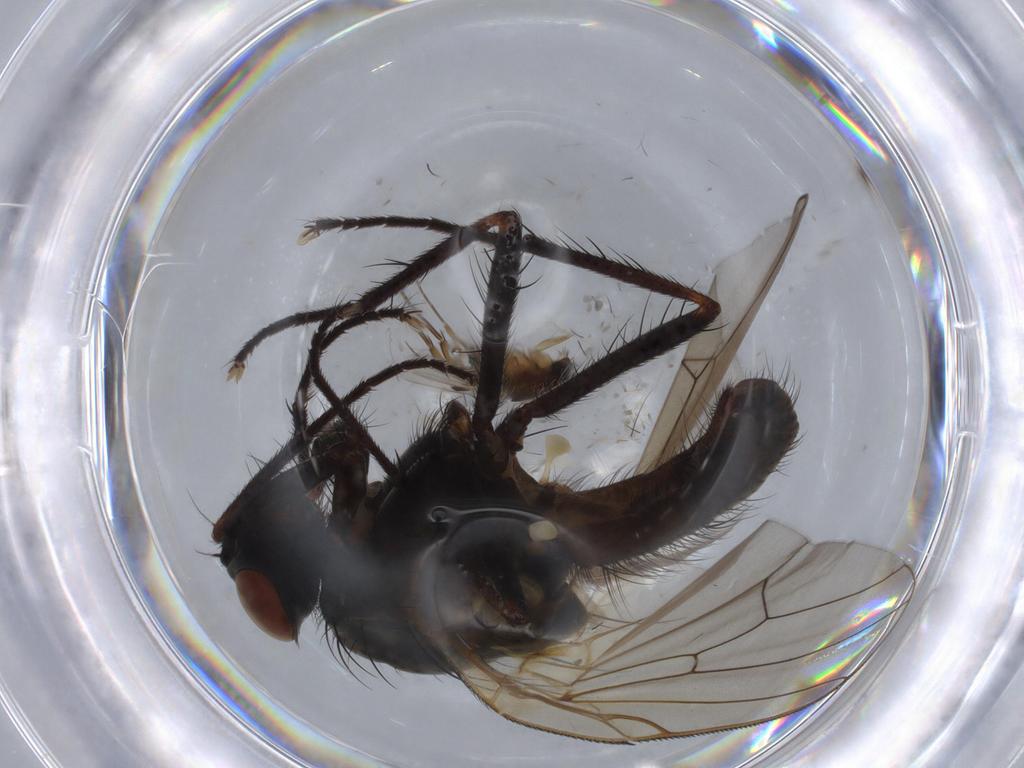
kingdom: Animalia
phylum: Arthropoda
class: Insecta
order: Diptera
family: Anthomyiidae
